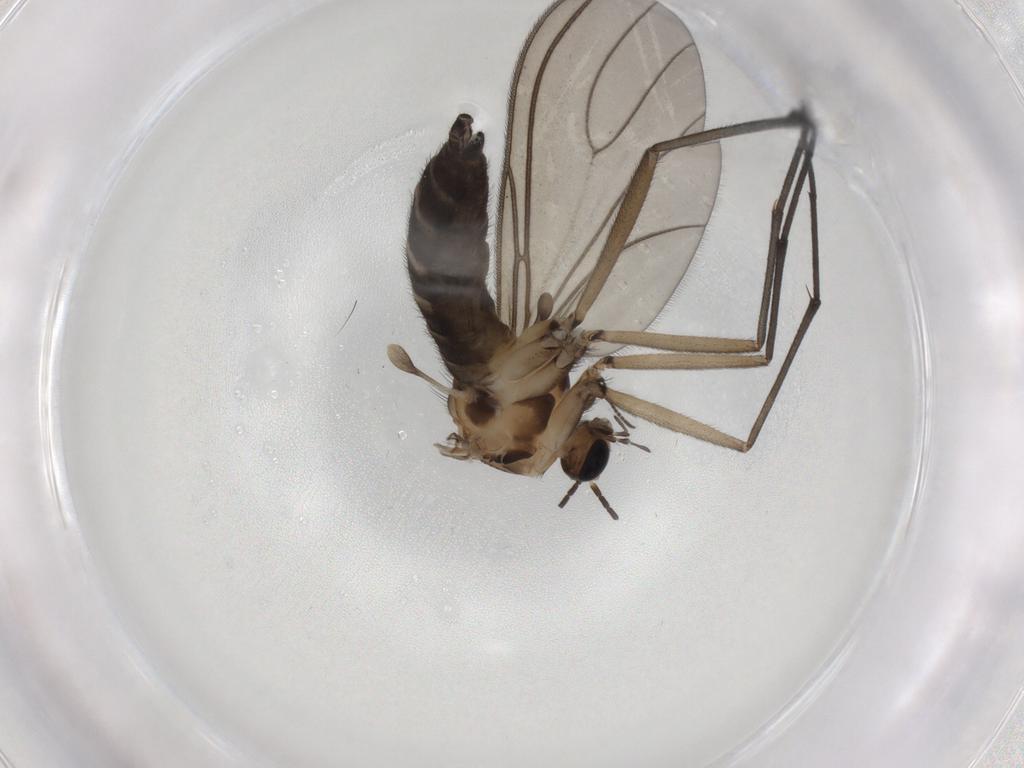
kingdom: Animalia
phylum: Arthropoda
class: Insecta
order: Diptera
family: Sciaridae
